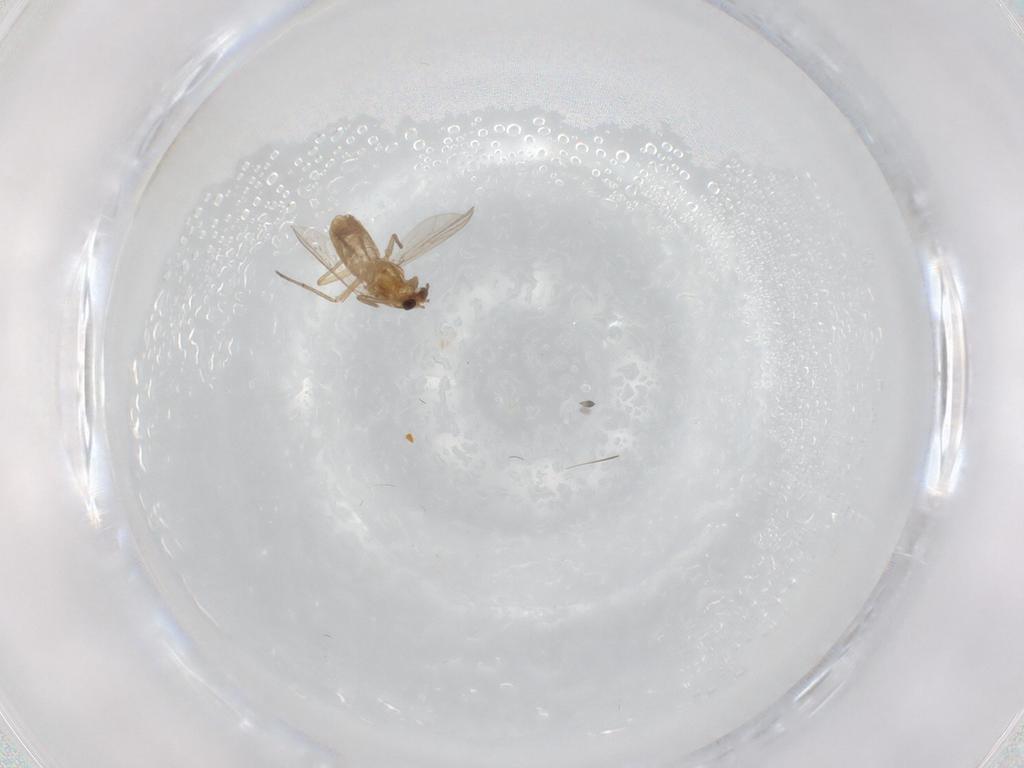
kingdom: Animalia
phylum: Arthropoda
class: Insecta
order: Diptera
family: Chironomidae
